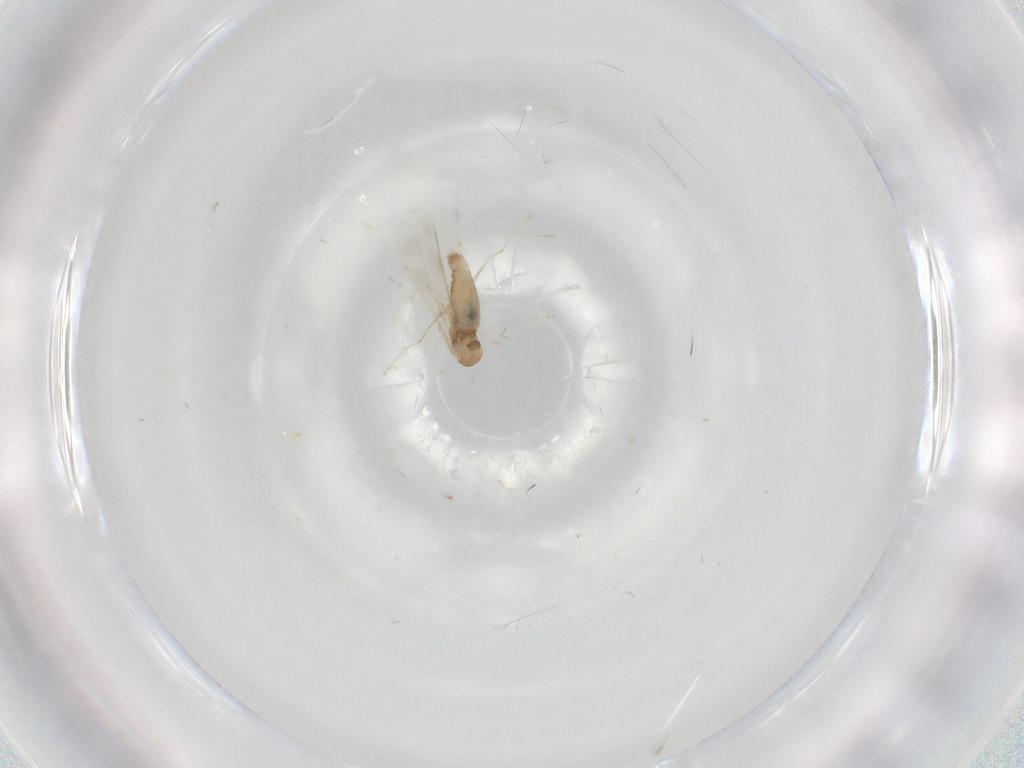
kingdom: Animalia
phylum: Arthropoda
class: Insecta
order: Diptera
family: Cecidomyiidae
